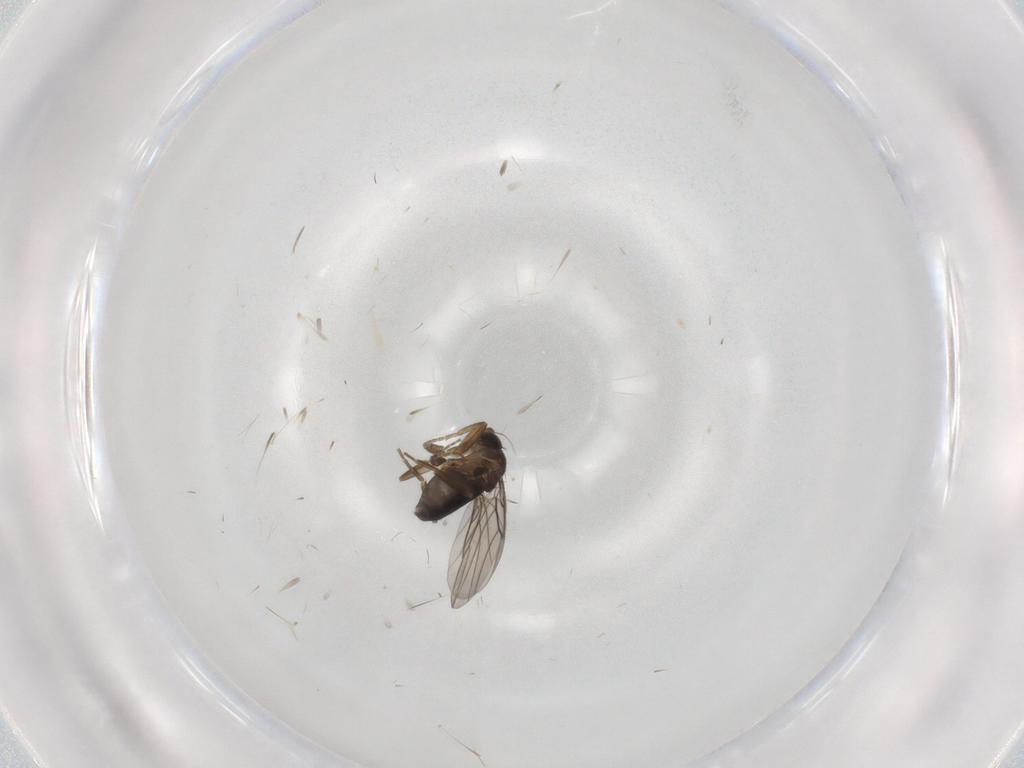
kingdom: Animalia
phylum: Arthropoda
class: Insecta
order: Diptera
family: Phoridae
